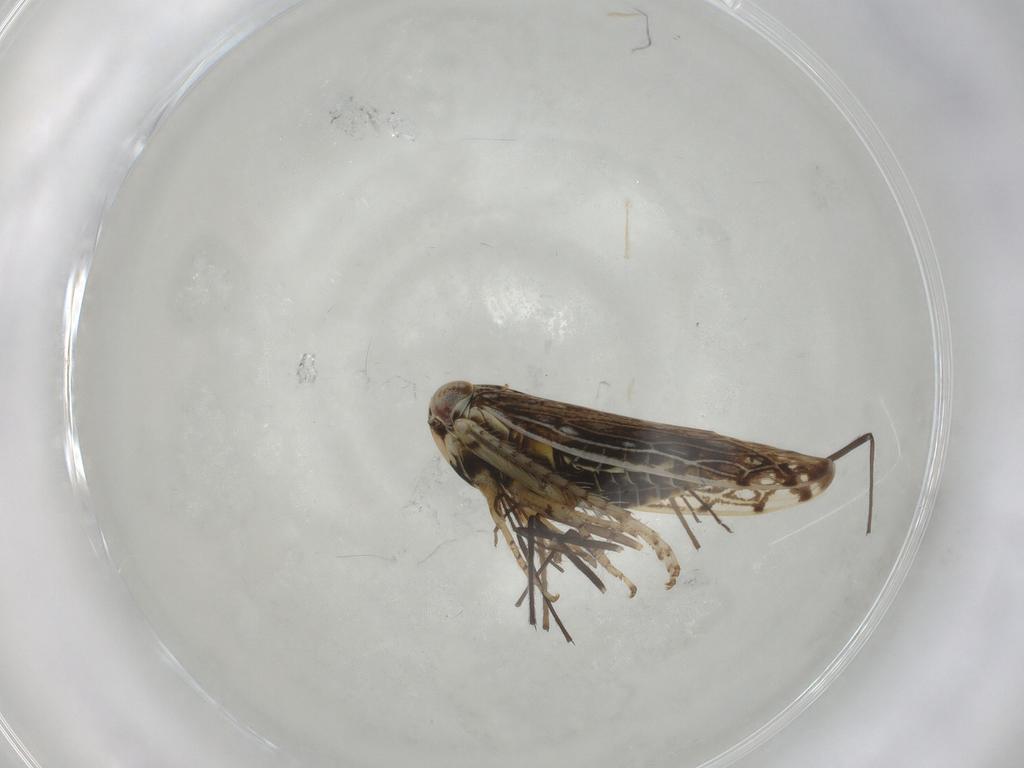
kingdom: Animalia
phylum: Arthropoda
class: Insecta
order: Hemiptera
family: Cicadellidae
